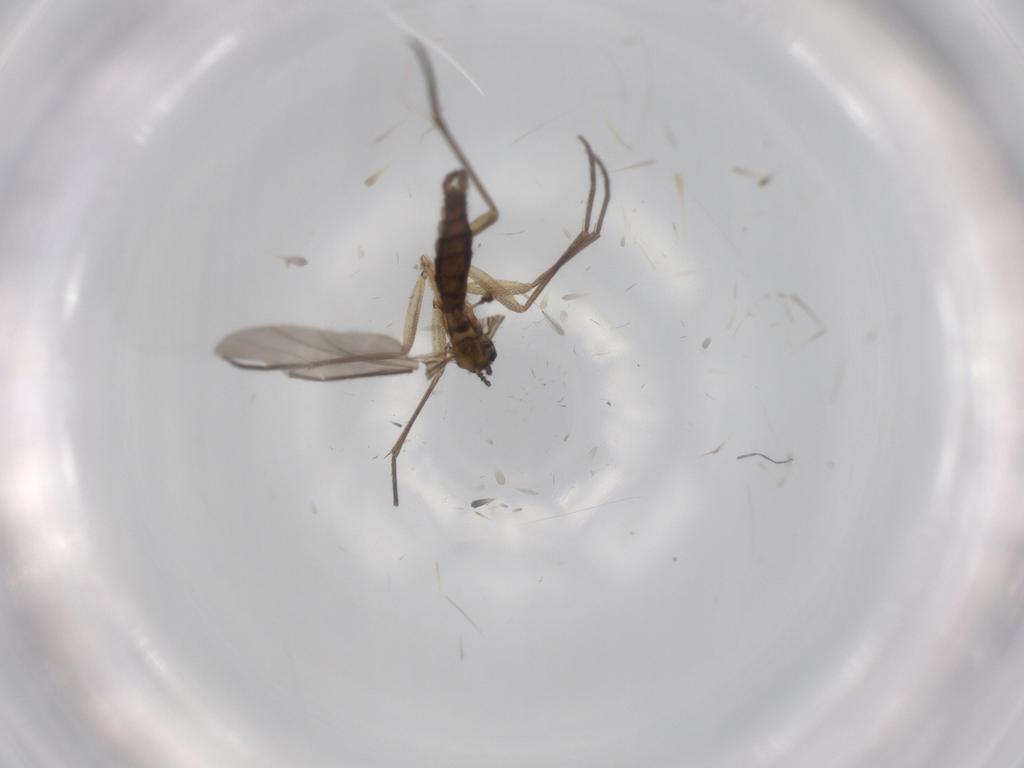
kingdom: Animalia
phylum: Arthropoda
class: Insecta
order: Diptera
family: Sciaridae
